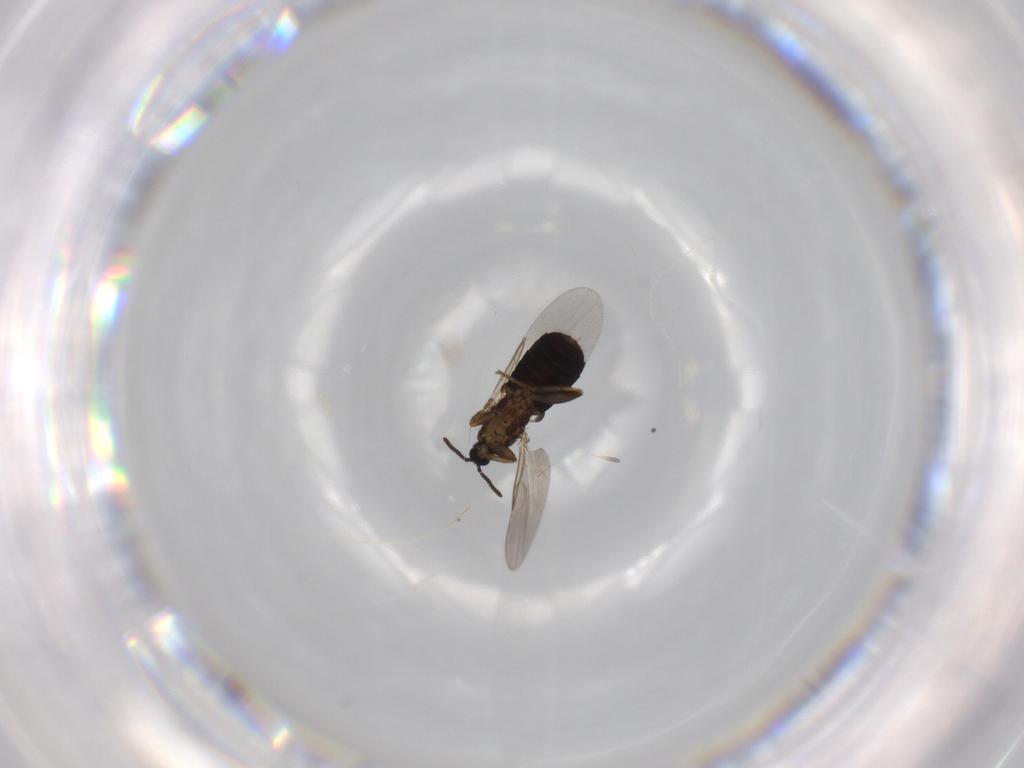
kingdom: Animalia
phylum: Arthropoda
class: Insecta
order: Diptera
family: Scatopsidae
